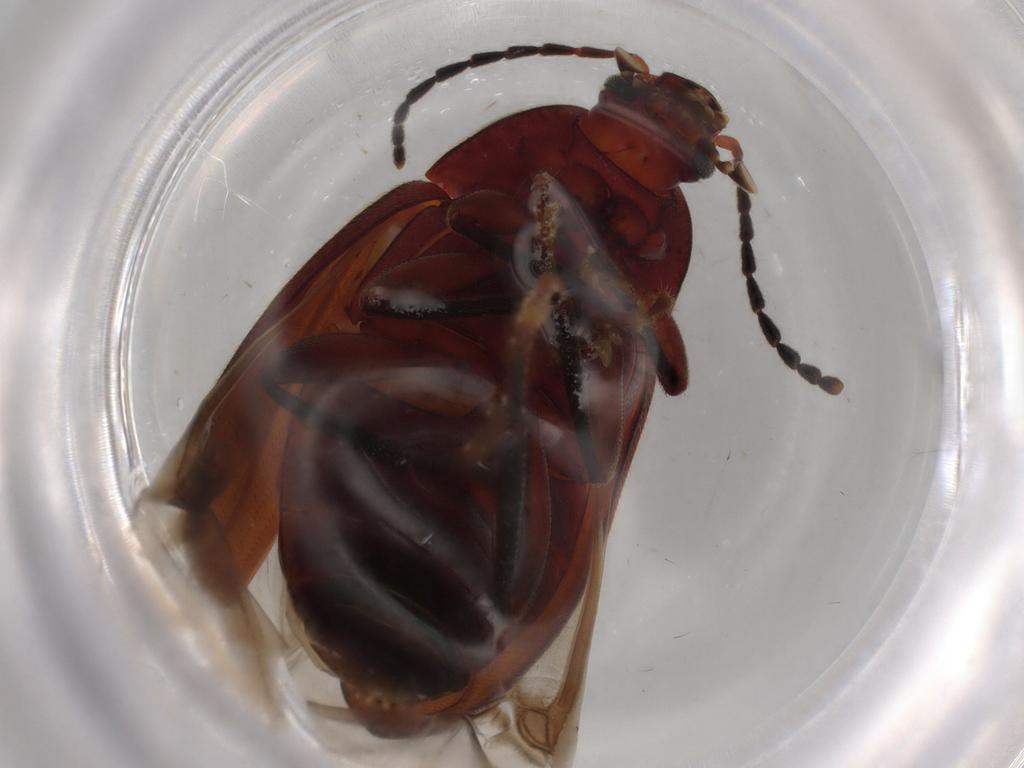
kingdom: Animalia
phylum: Arthropoda
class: Insecta
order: Coleoptera
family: Tenebrionidae
